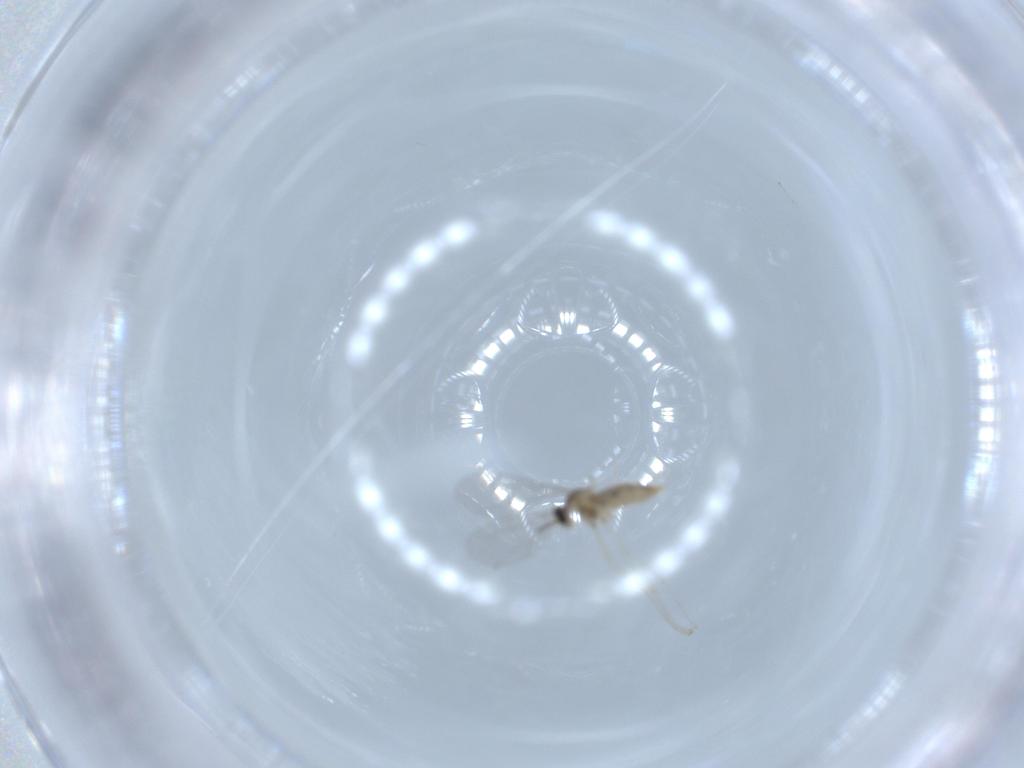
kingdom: Animalia
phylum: Arthropoda
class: Insecta
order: Diptera
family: Cecidomyiidae
